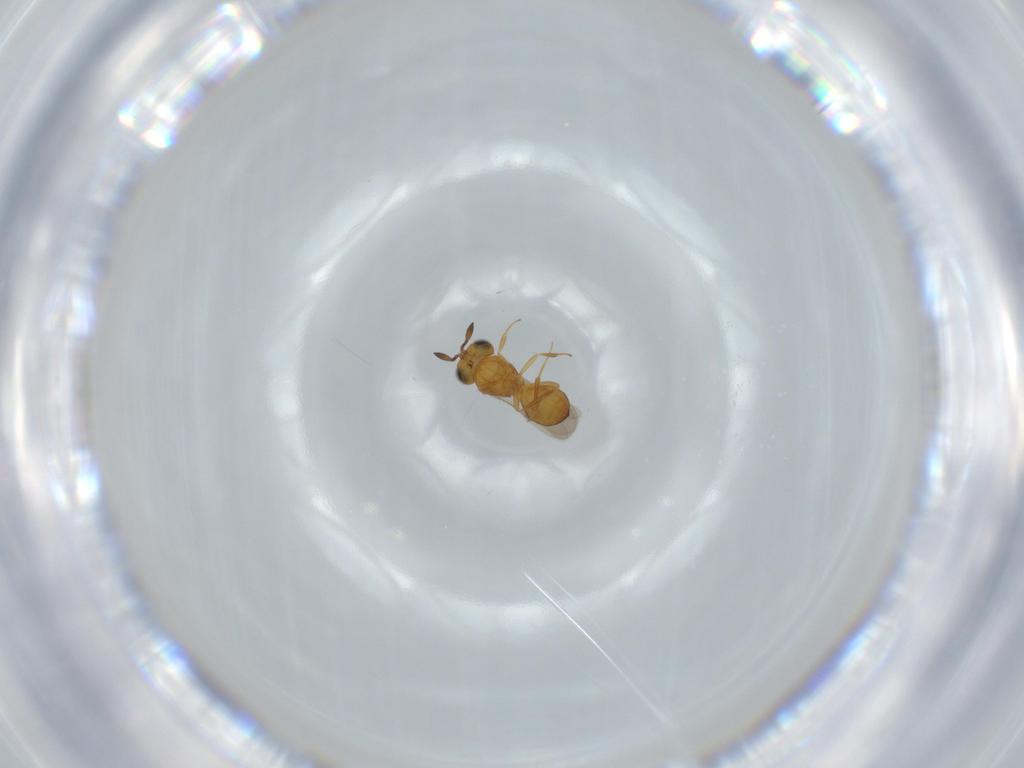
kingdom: Animalia
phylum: Arthropoda
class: Insecta
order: Hymenoptera
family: Scelionidae
